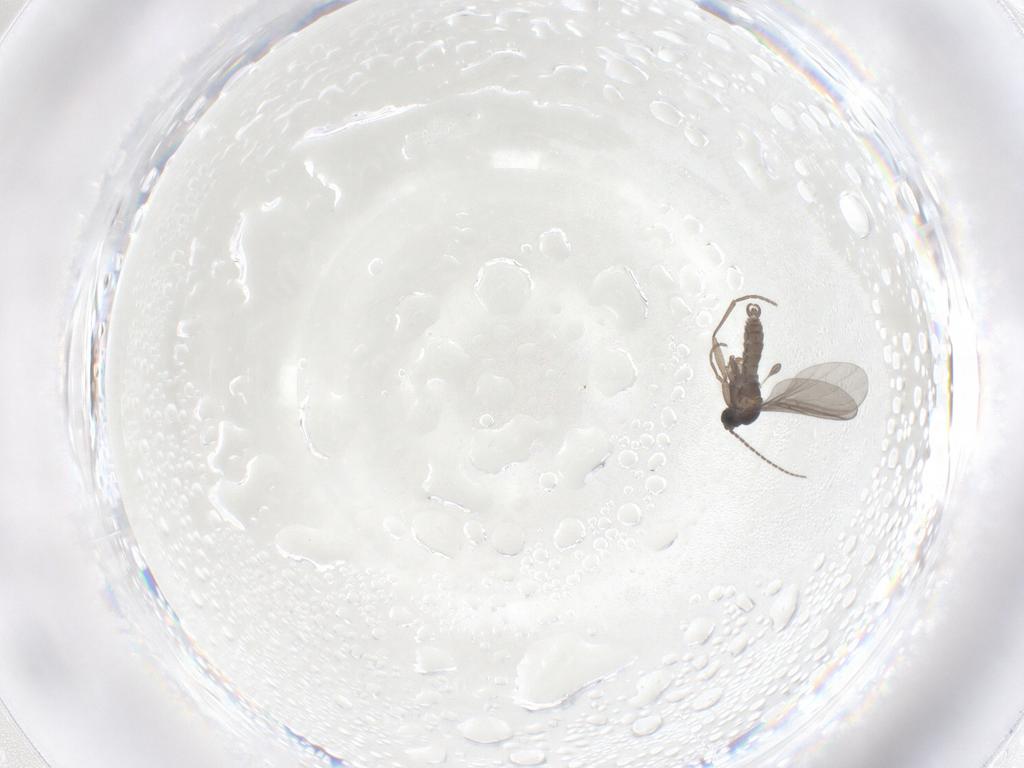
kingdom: Animalia
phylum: Arthropoda
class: Insecta
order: Diptera
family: Sciaridae
